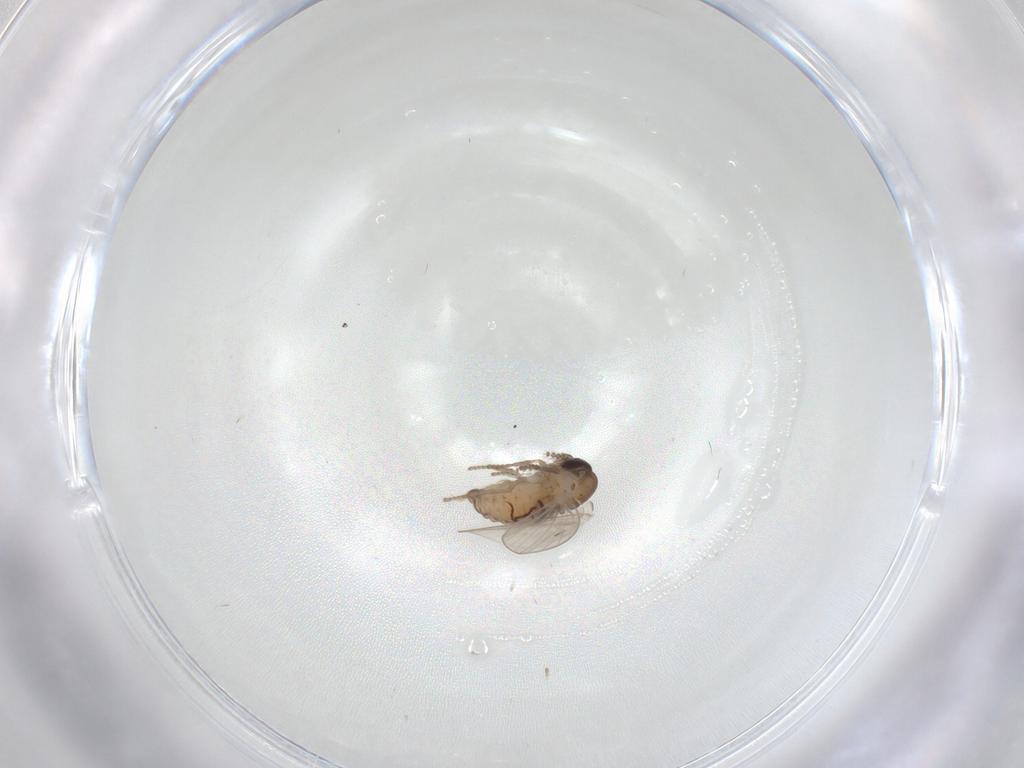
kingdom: Animalia
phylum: Arthropoda
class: Insecta
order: Diptera
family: Psychodidae
